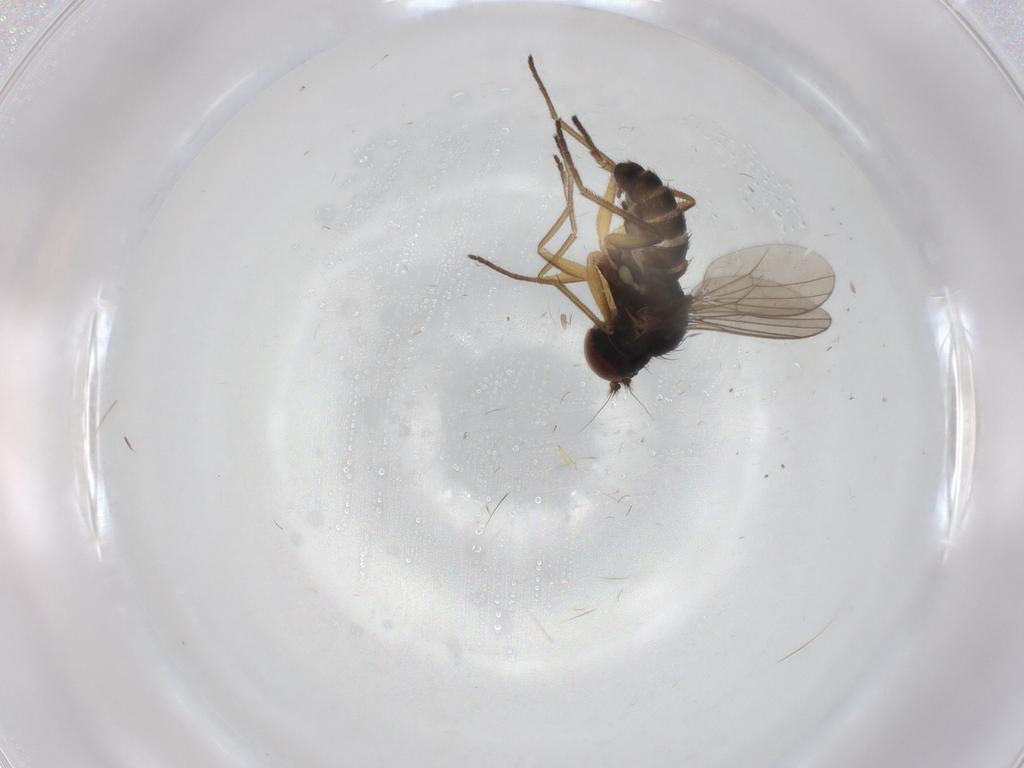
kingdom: Animalia
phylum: Arthropoda
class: Insecta
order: Diptera
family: Dolichopodidae
